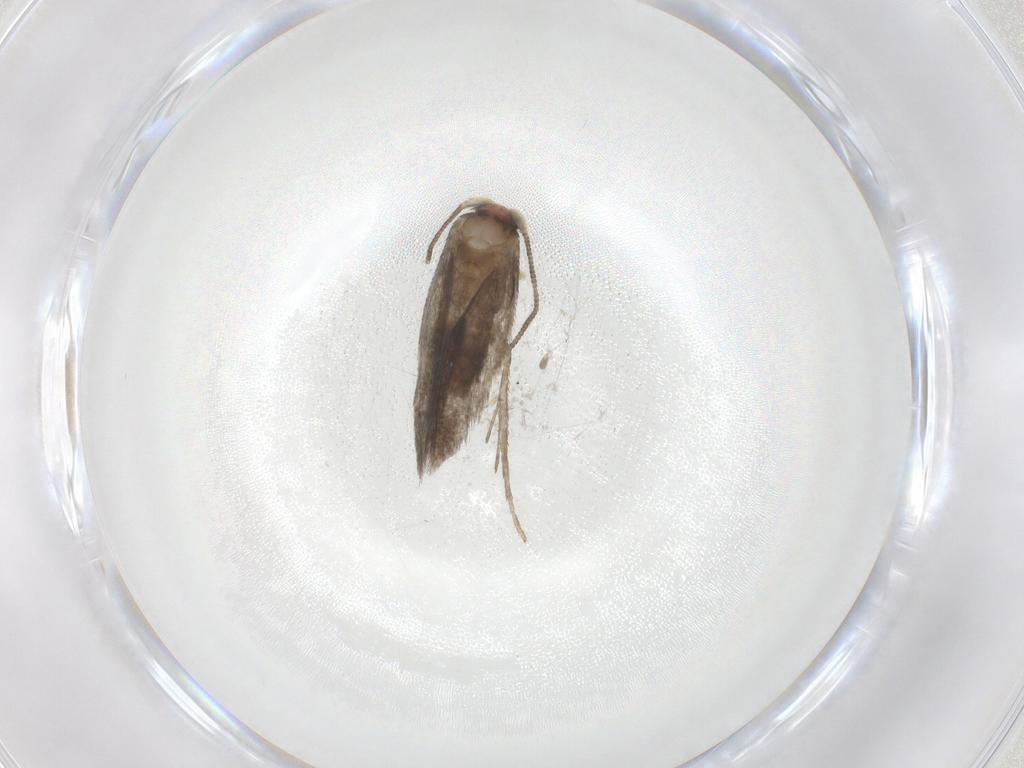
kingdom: Animalia
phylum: Arthropoda
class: Insecta
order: Lepidoptera
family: Nepticulidae
